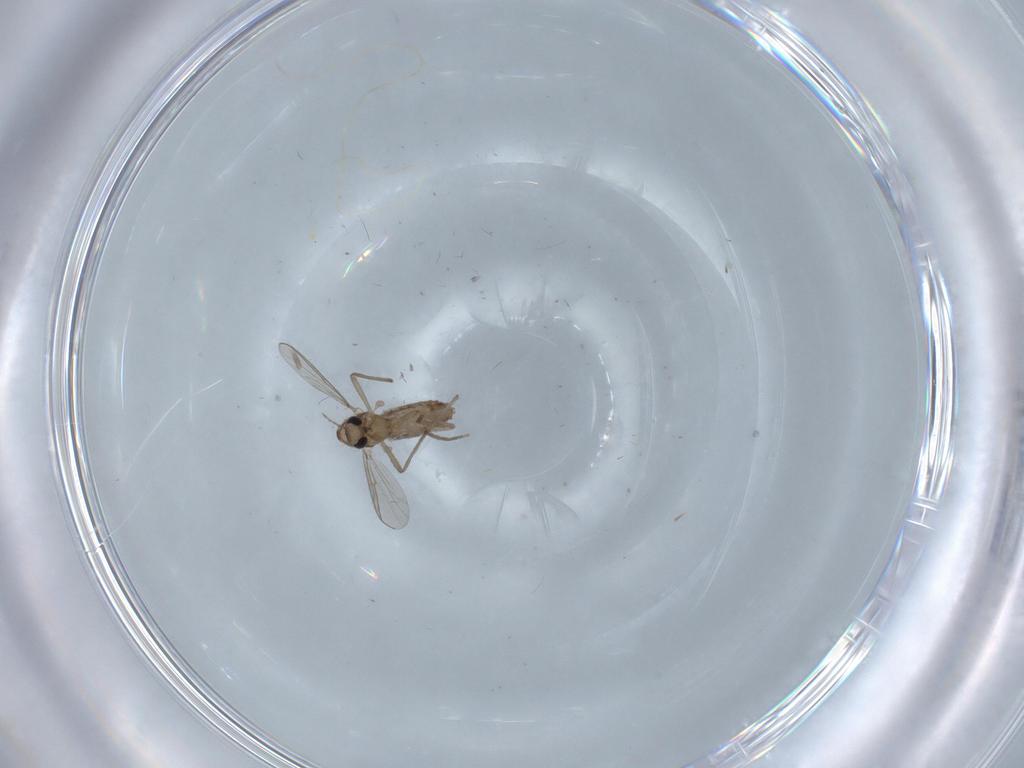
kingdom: Animalia
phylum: Arthropoda
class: Insecta
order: Diptera
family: Chironomidae
